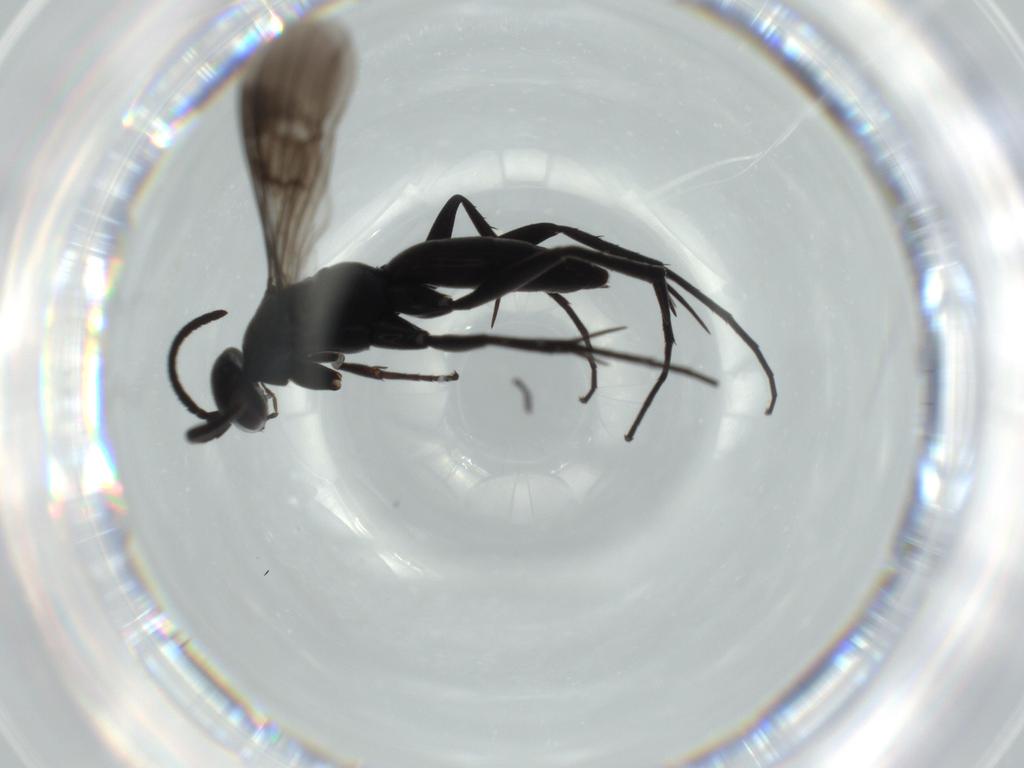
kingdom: Animalia
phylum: Arthropoda
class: Insecta
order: Hymenoptera
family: Pompilidae
